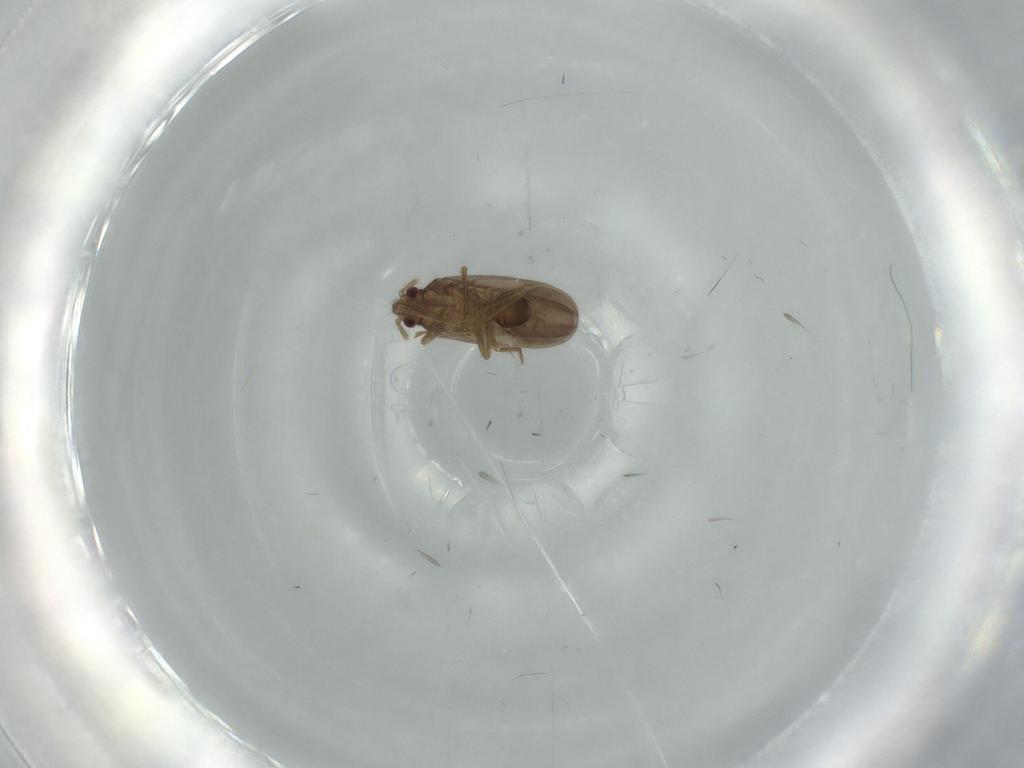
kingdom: Animalia
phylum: Arthropoda
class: Insecta
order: Hemiptera
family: Ceratocombidae
